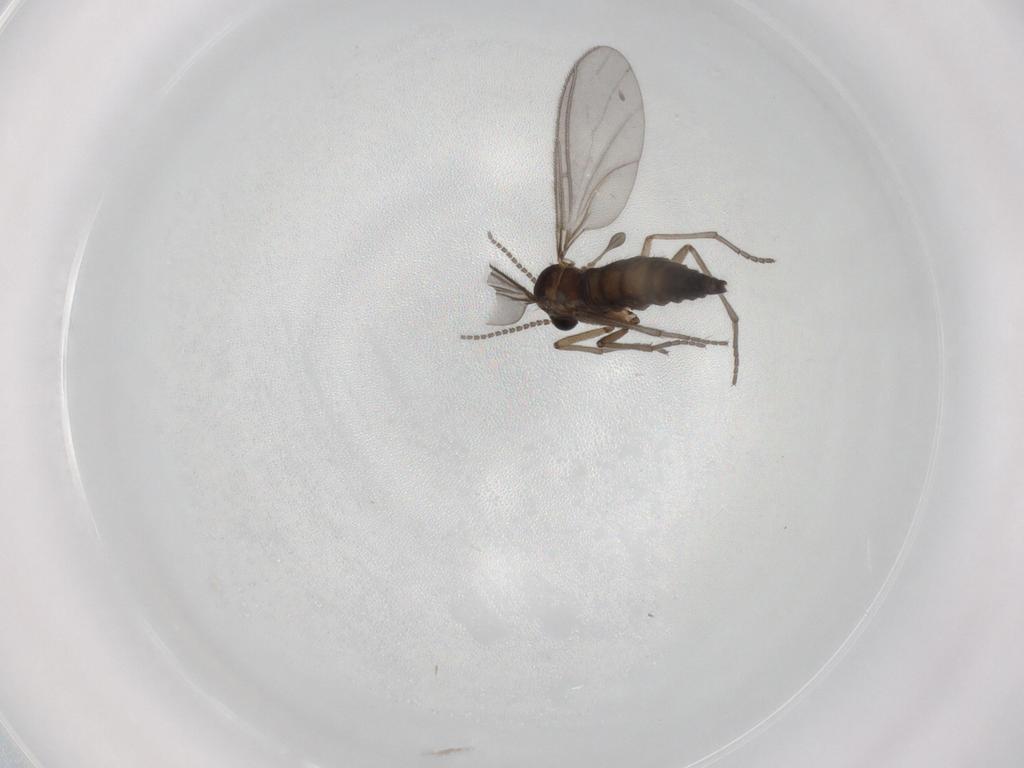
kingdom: Animalia
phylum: Arthropoda
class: Insecta
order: Diptera
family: Sciaridae
